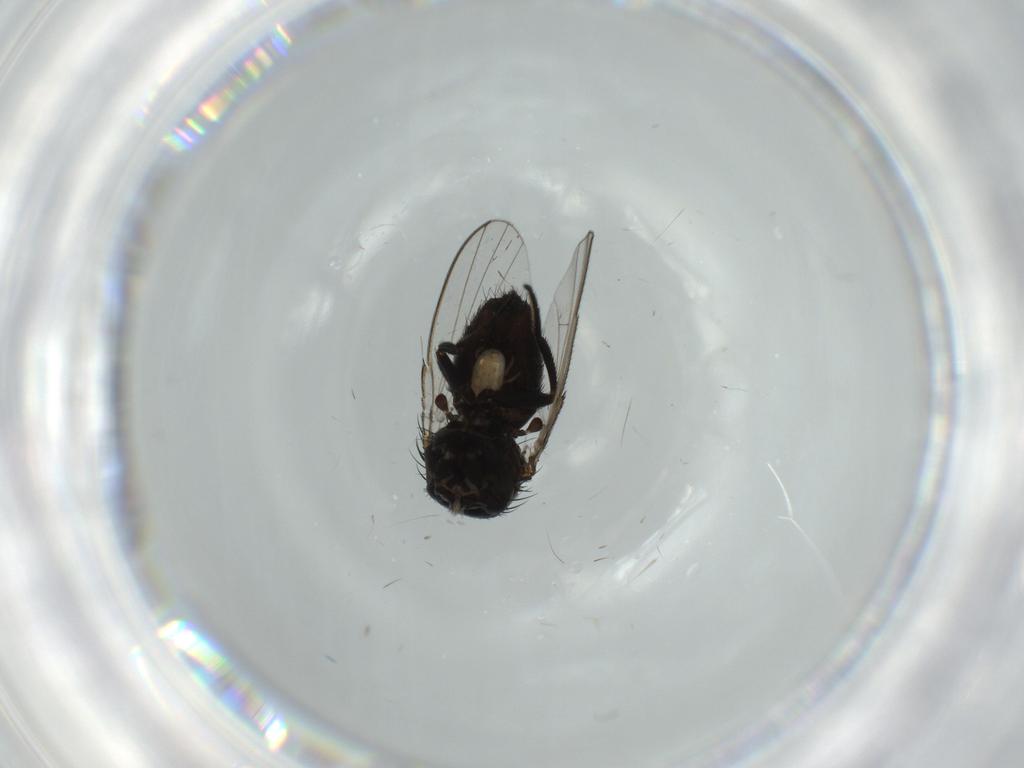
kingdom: Animalia
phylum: Arthropoda
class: Insecta
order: Diptera
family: Milichiidae
